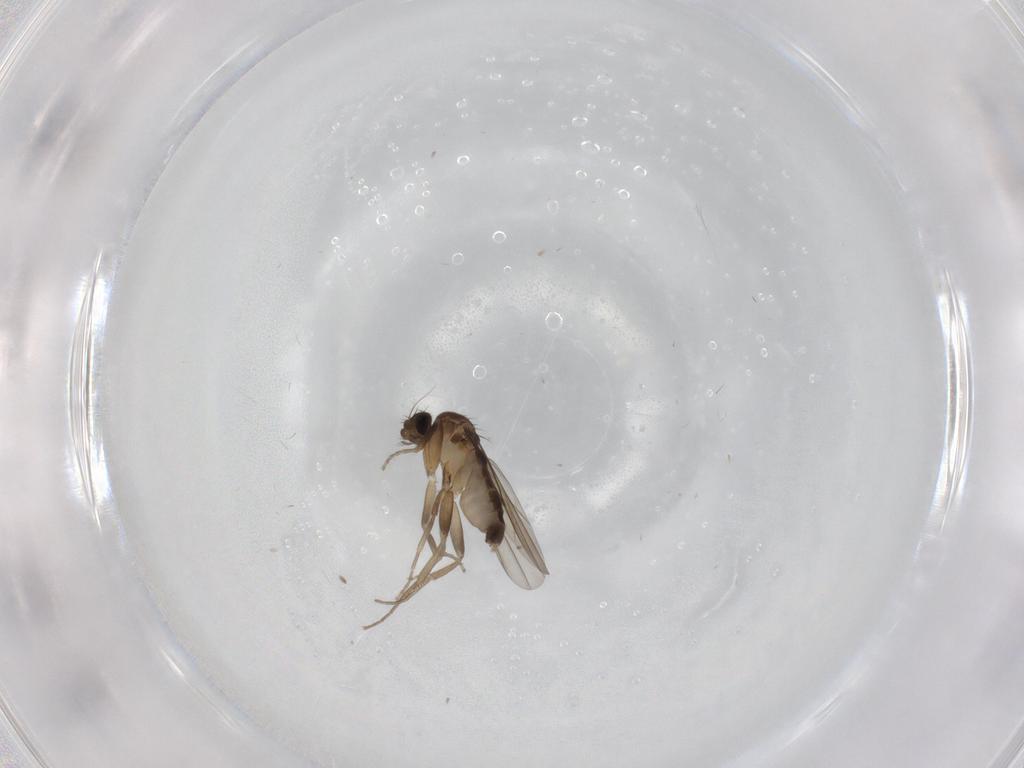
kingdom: Animalia
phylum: Arthropoda
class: Insecta
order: Diptera
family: Phoridae
